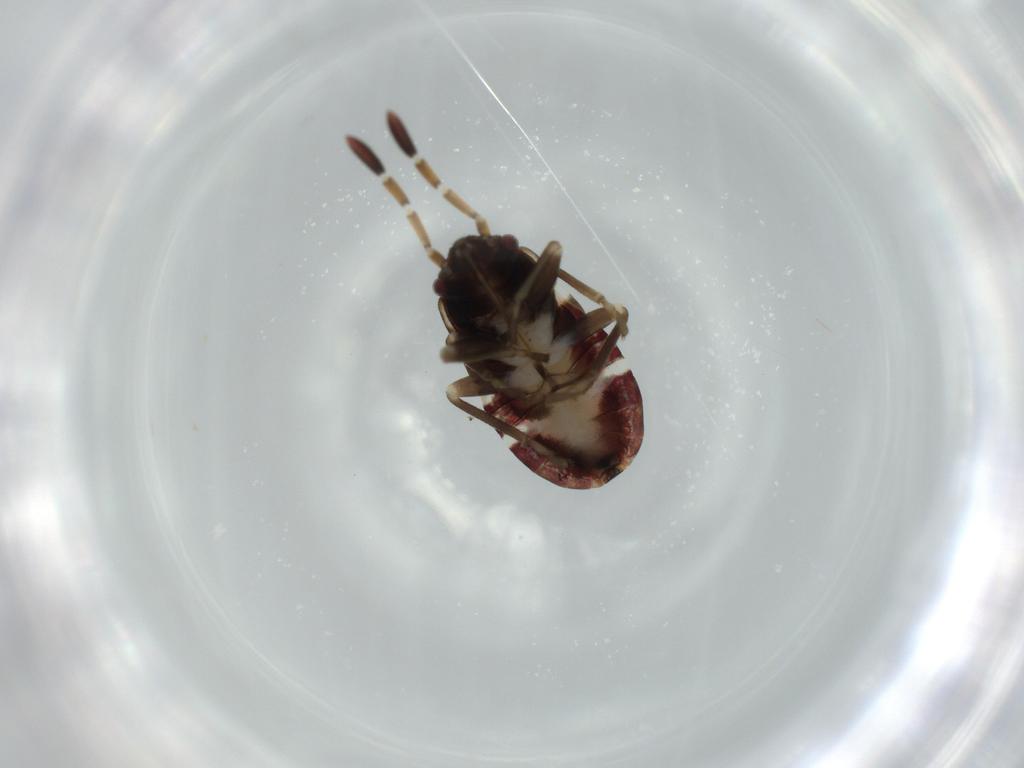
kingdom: Animalia
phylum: Arthropoda
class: Insecta
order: Hemiptera
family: Rhyparochromidae
